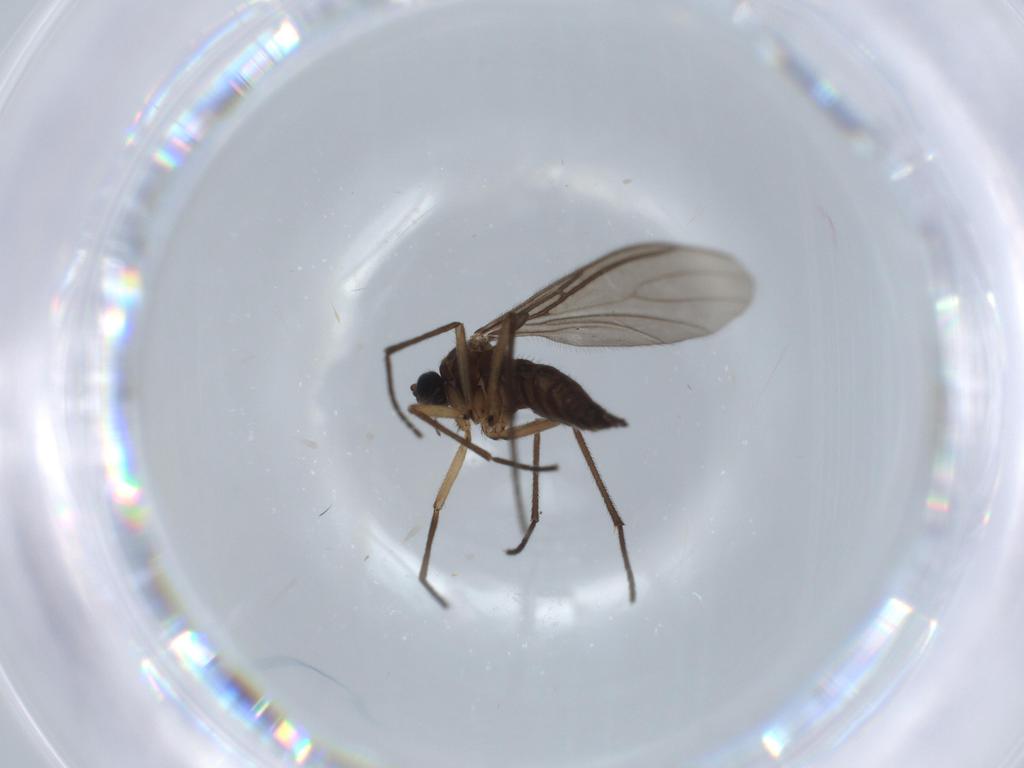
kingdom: Animalia
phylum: Arthropoda
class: Insecta
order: Diptera
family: Sciaridae
